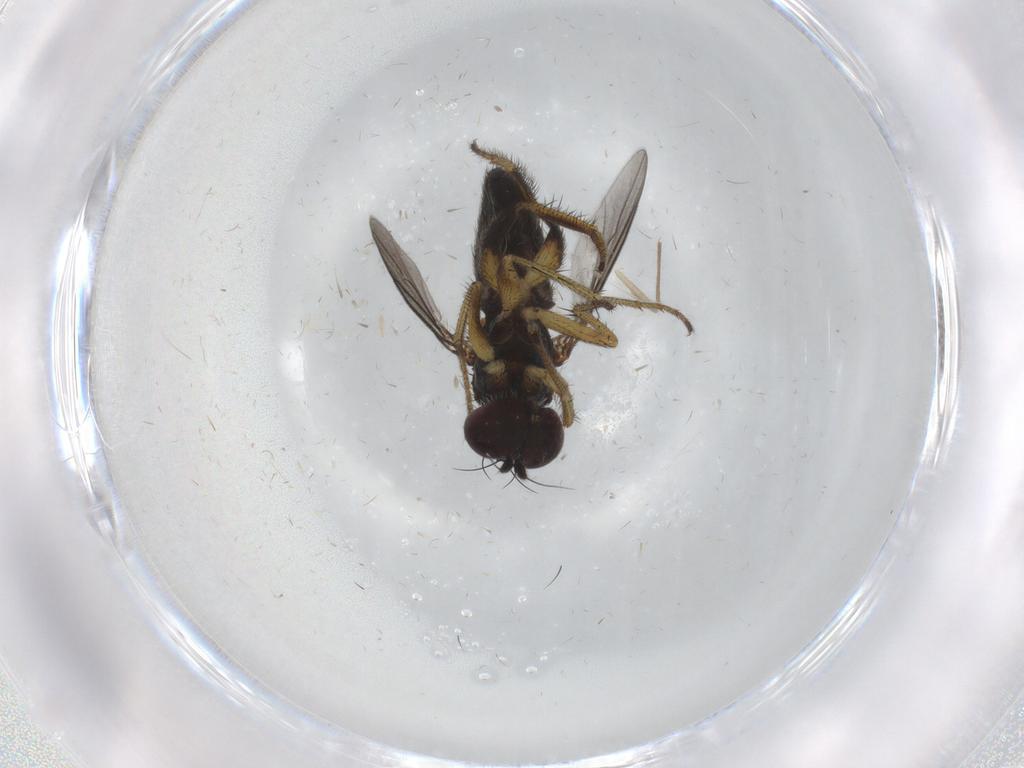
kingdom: Animalia
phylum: Arthropoda
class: Insecta
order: Diptera
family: Dolichopodidae
